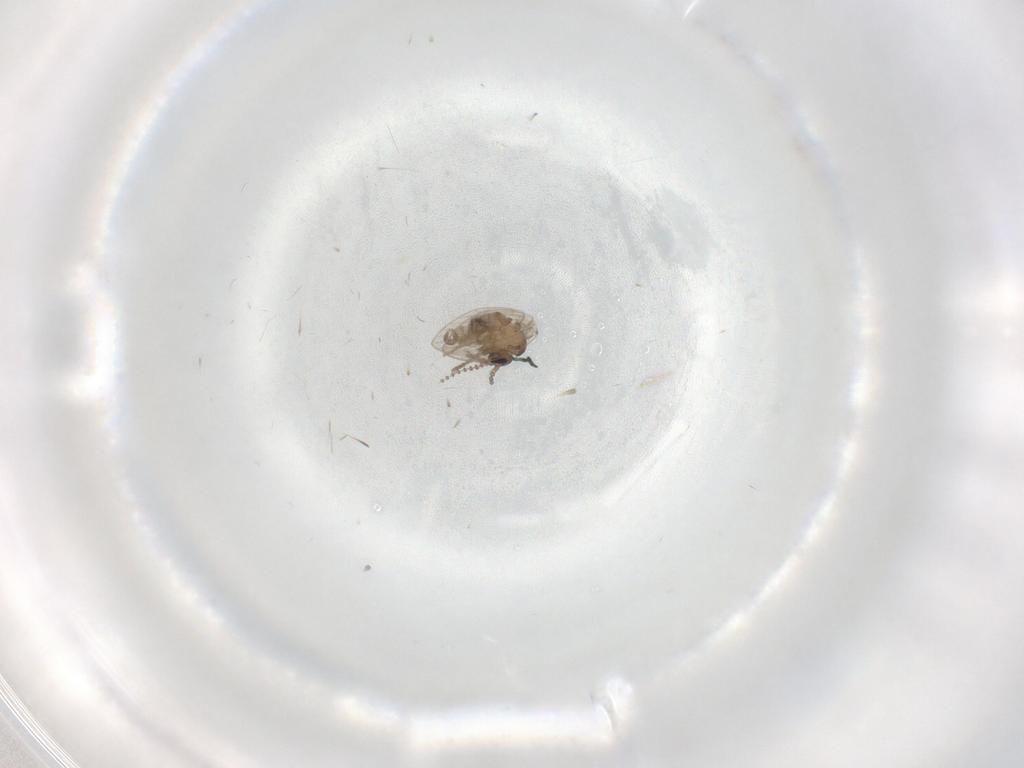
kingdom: Animalia
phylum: Arthropoda
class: Insecta
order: Diptera
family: Psychodidae
